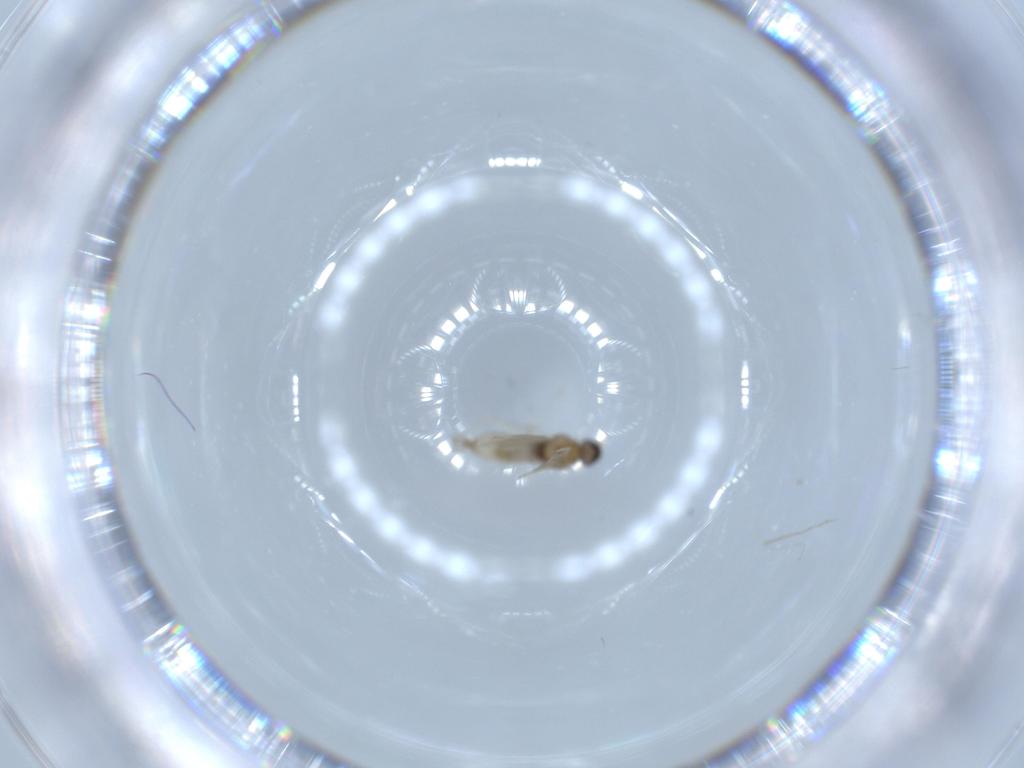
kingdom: Animalia
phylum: Arthropoda
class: Insecta
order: Diptera
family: Cecidomyiidae
